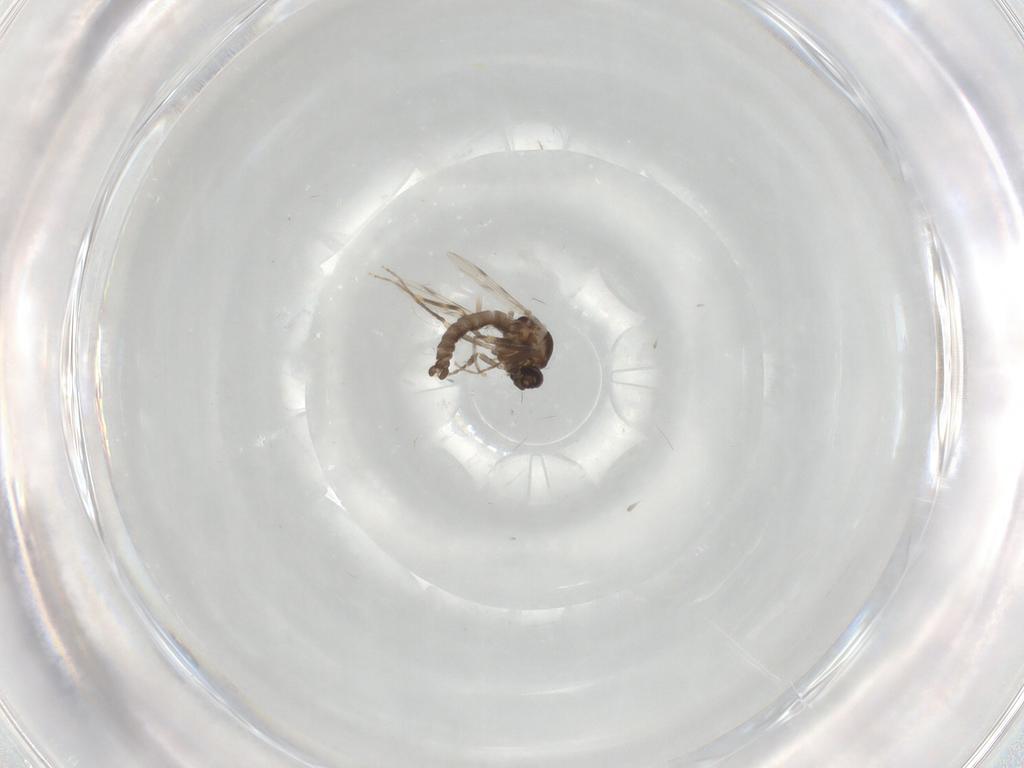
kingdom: Animalia
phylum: Arthropoda
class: Insecta
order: Diptera
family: Ceratopogonidae
